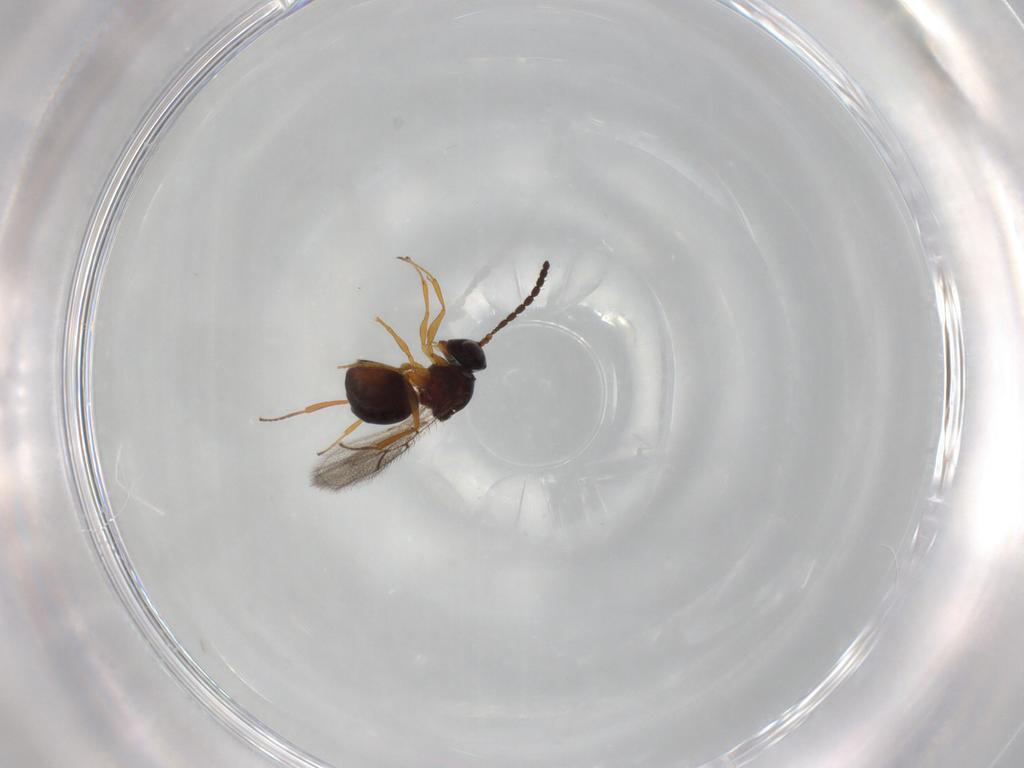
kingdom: Animalia
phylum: Arthropoda
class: Insecta
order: Hymenoptera
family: Figitidae
